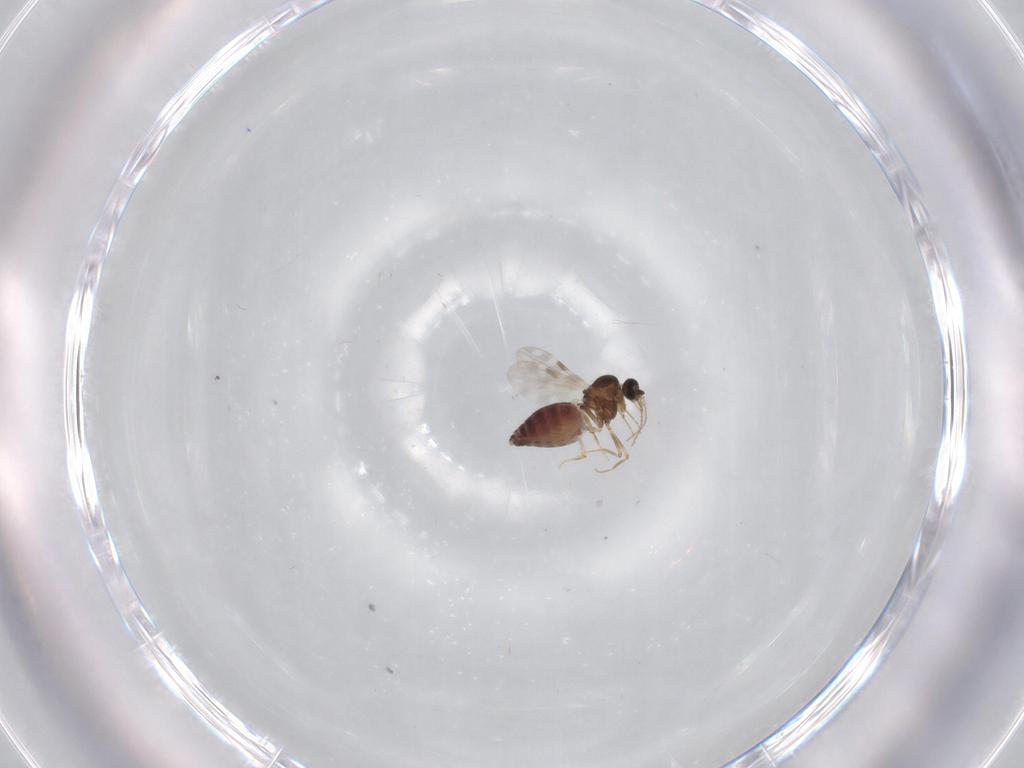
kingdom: Animalia
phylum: Arthropoda
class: Insecta
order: Diptera
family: Ceratopogonidae
